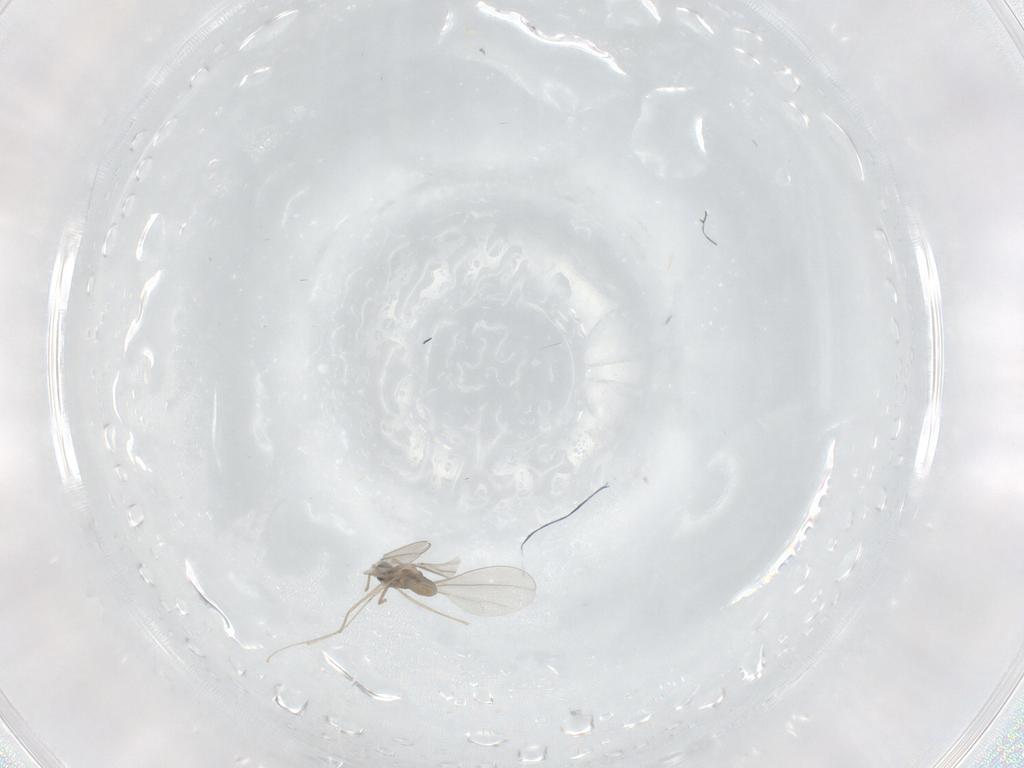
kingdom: Animalia
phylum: Arthropoda
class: Insecta
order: Diptera
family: Cecidomyiidae
